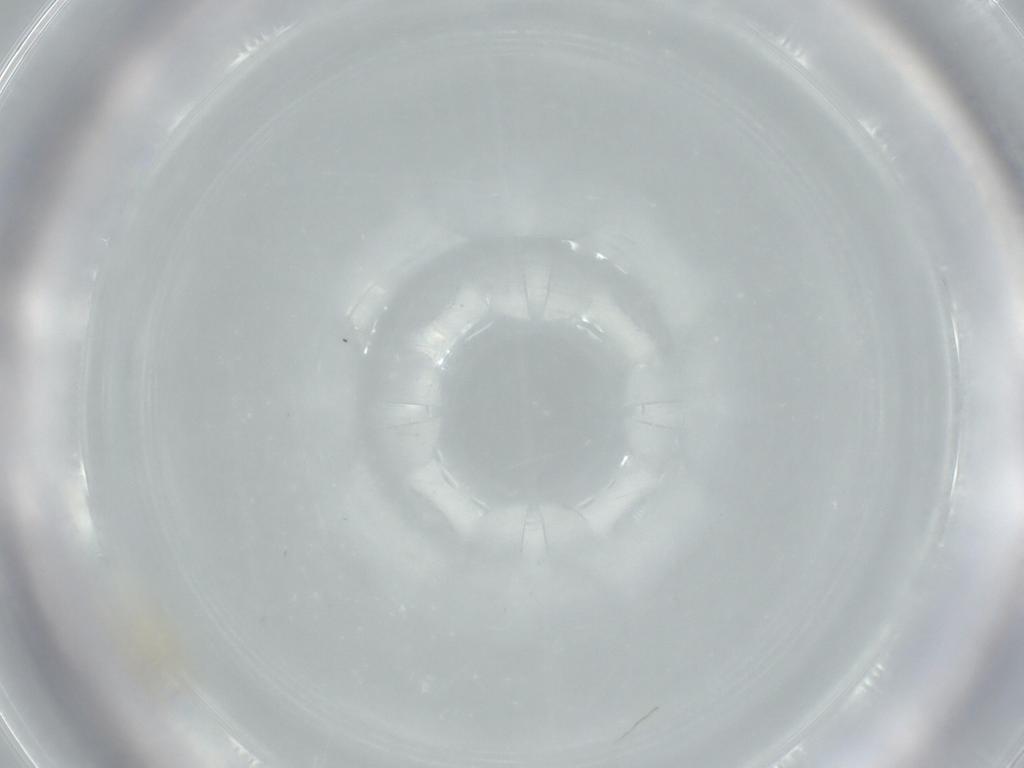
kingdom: Animalia
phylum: Arthropoda
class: Insecta
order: Diptera
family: Cecidomyiidae
